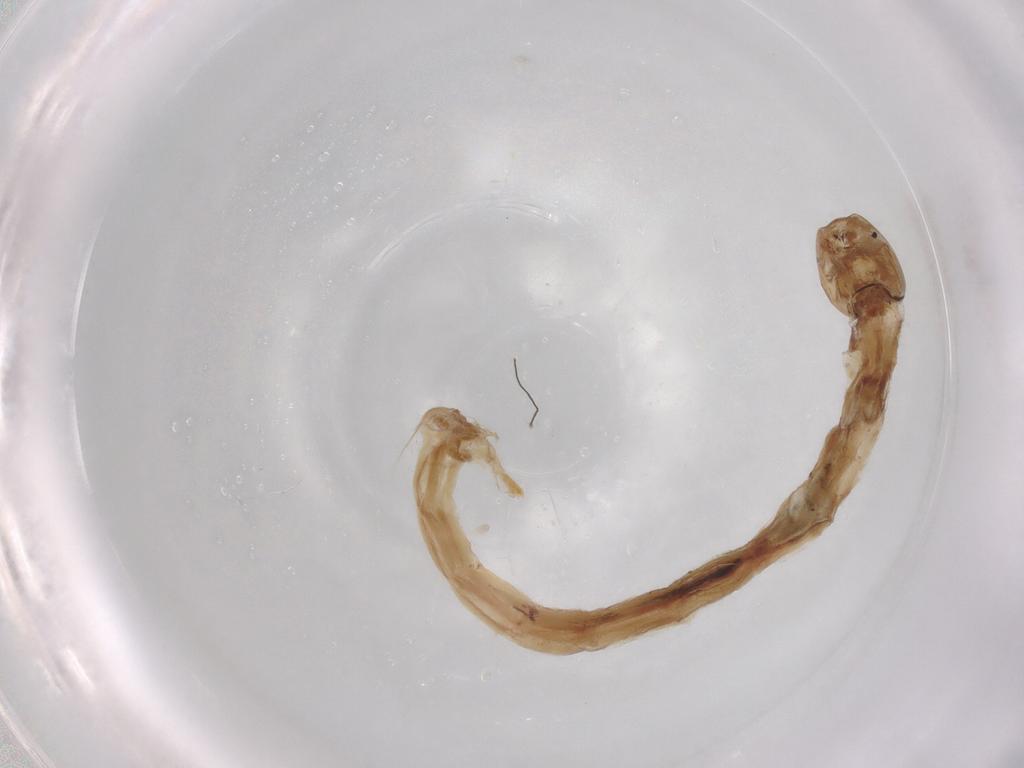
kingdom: Animalia
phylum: Arthropoda
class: Insecta
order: Diptera
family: Chironomidae
